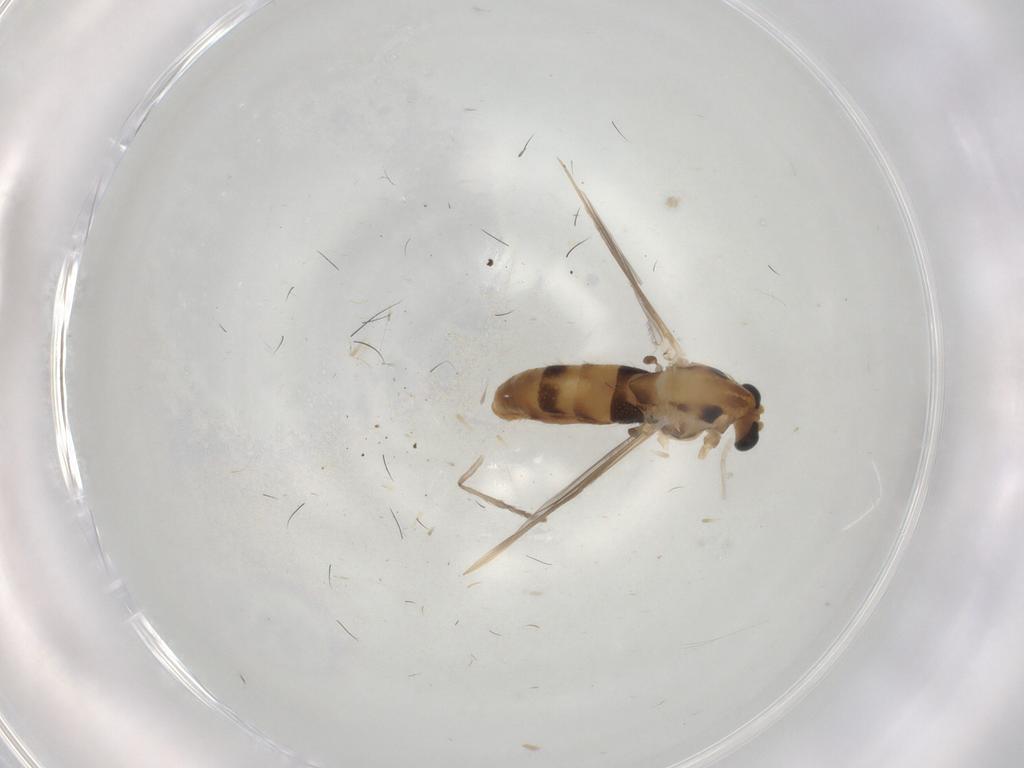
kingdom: Animalia
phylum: Arthropoda
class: Insecta
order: Diptera
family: Chironomidae
